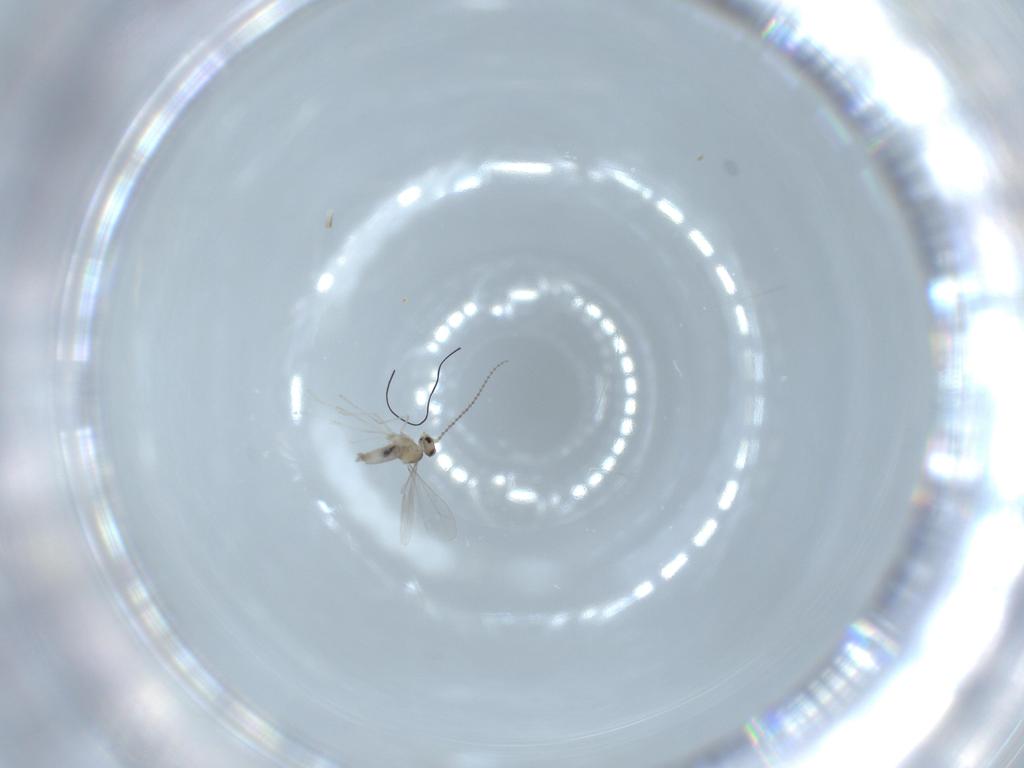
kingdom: Animalia
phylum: Arthropoda
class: Insecta
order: Diptera
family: Cecidomyiidae
